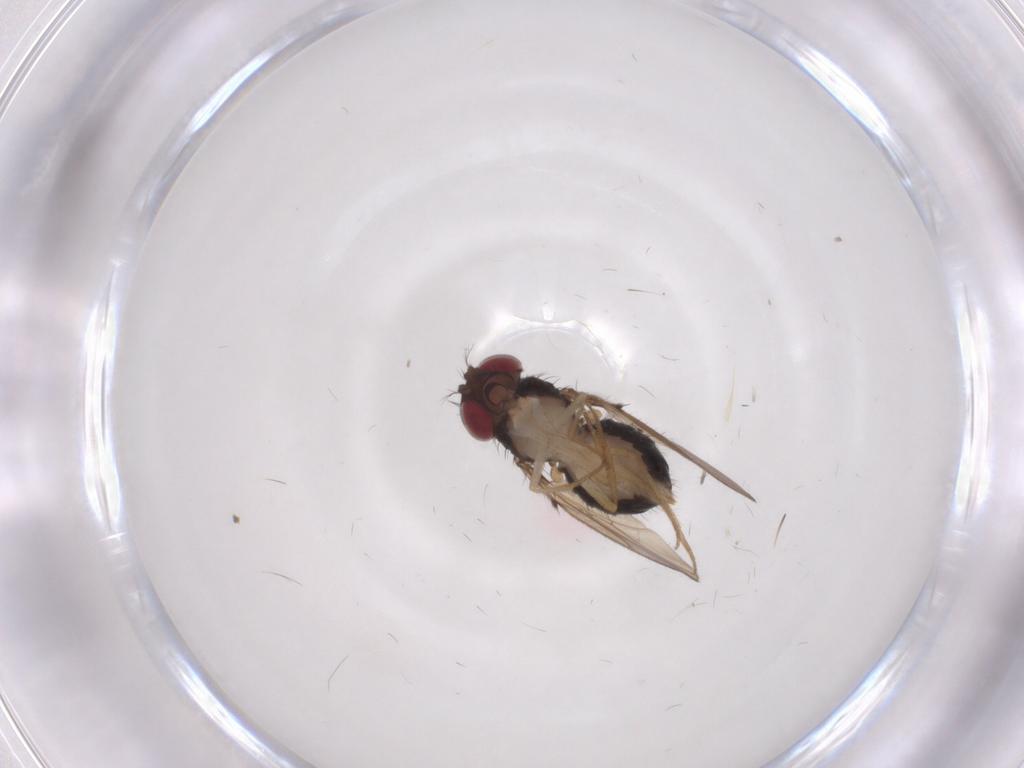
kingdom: Animalia
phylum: Arthropoda
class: Insecta
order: Diptera
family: Drosophilidae
